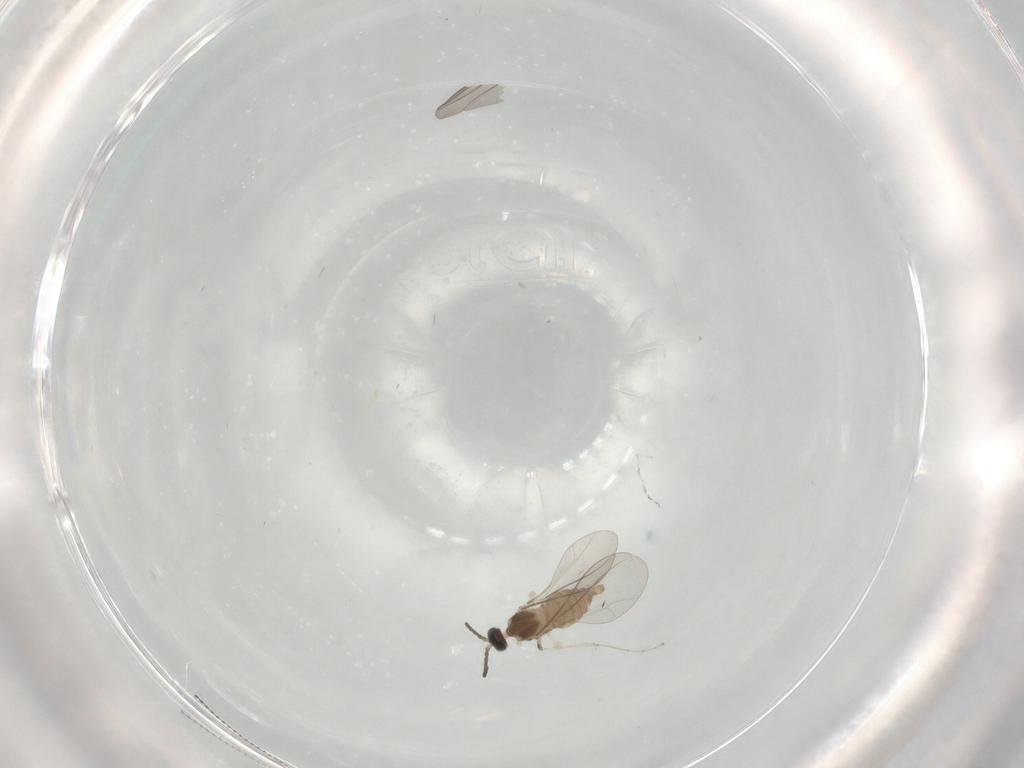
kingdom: Animalia
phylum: Arthropoda
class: Insecta
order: Diptera
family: Cecidomyiidae
